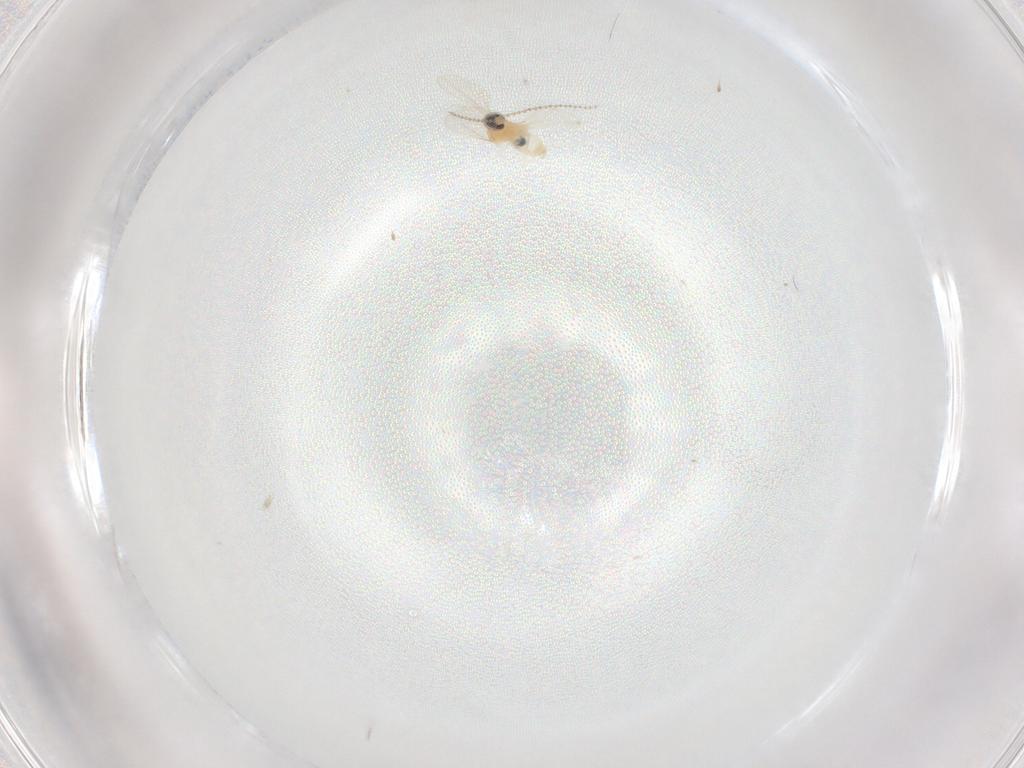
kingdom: Animalia
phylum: Arthropoda
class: Insecta
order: Diptera
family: Cecidomyiidae
